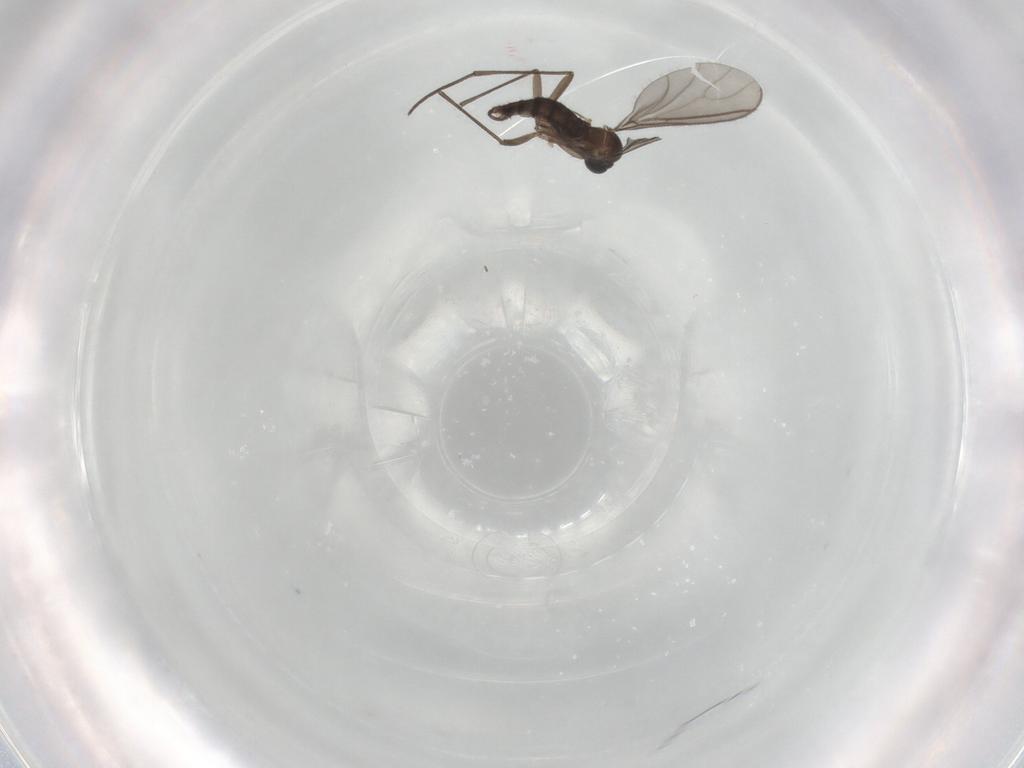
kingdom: Animalia
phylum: Arthropoda
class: Insecta
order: Diptera
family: Sciaridae
